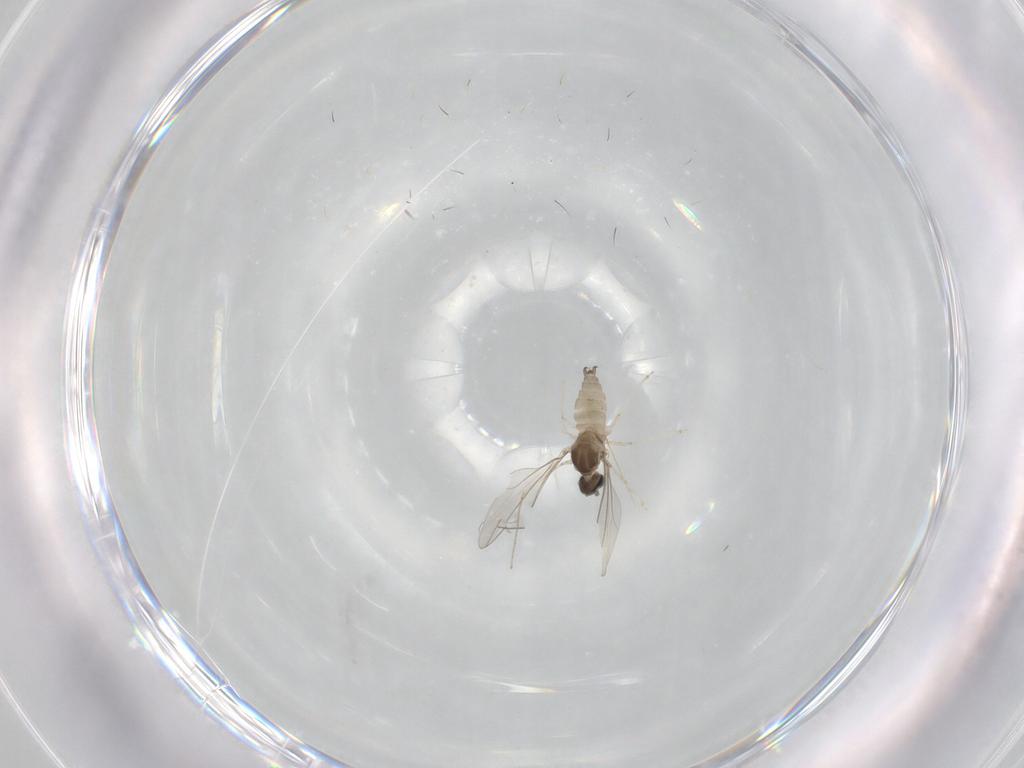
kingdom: Animalia
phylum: Arthropoda
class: Insecta
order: Diptera
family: Cecidomyiidae
